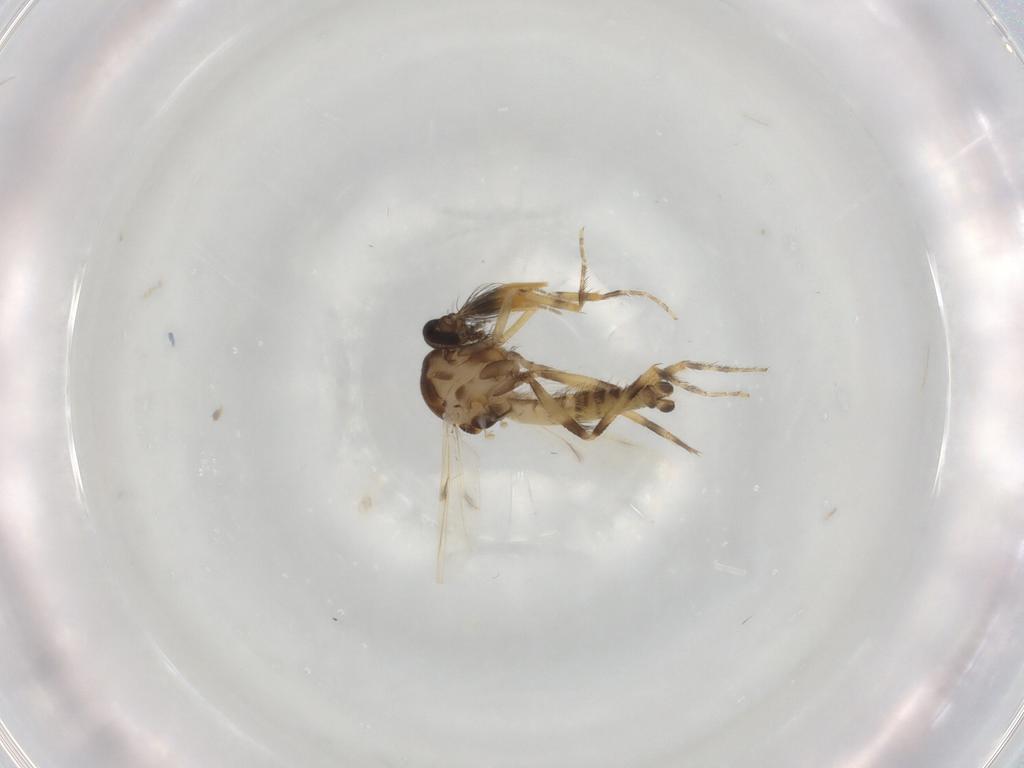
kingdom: Animalia
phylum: Arthropoda
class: Insecta
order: Diptera
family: Ceratopogonidae
